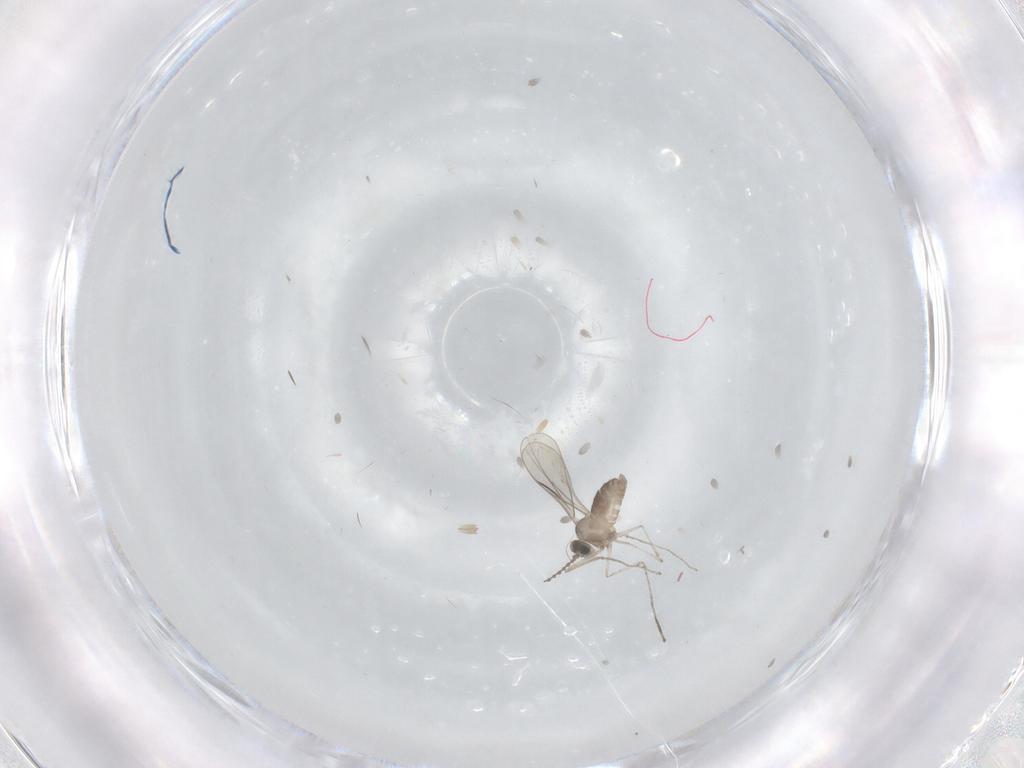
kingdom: Animalia
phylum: Arthropoda
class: Insecta
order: Diptera
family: Cecidomyiidae
